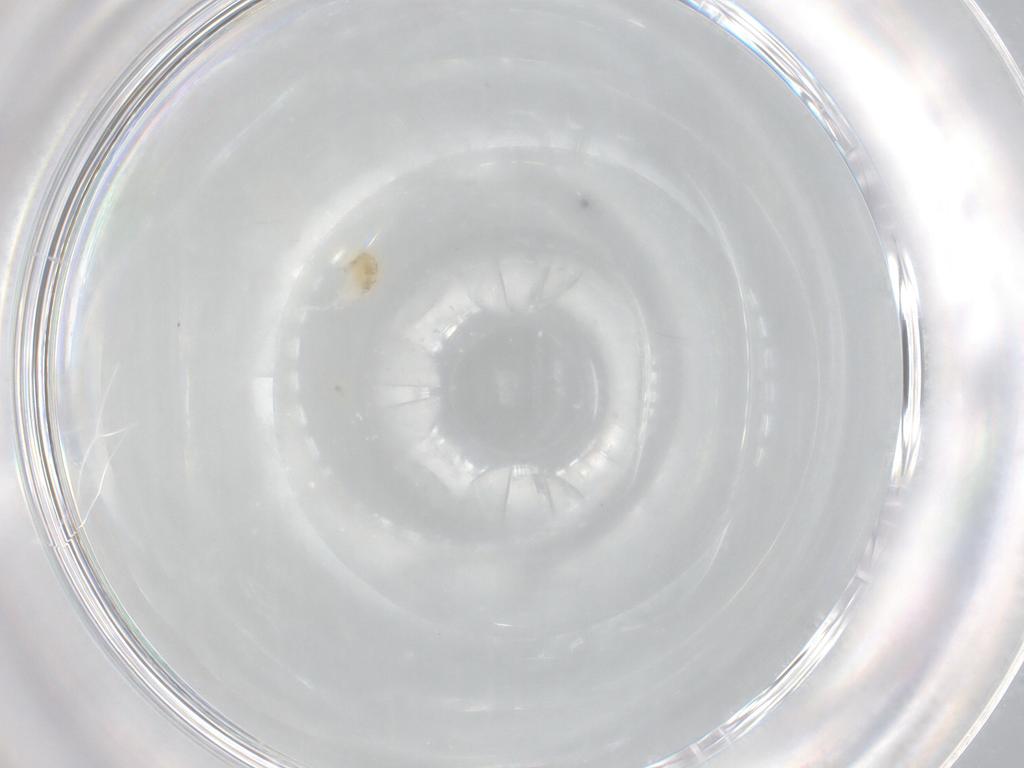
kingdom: Animalia
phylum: Arthropoda
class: Arachnida
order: Trombidiformes
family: Eupodidae
